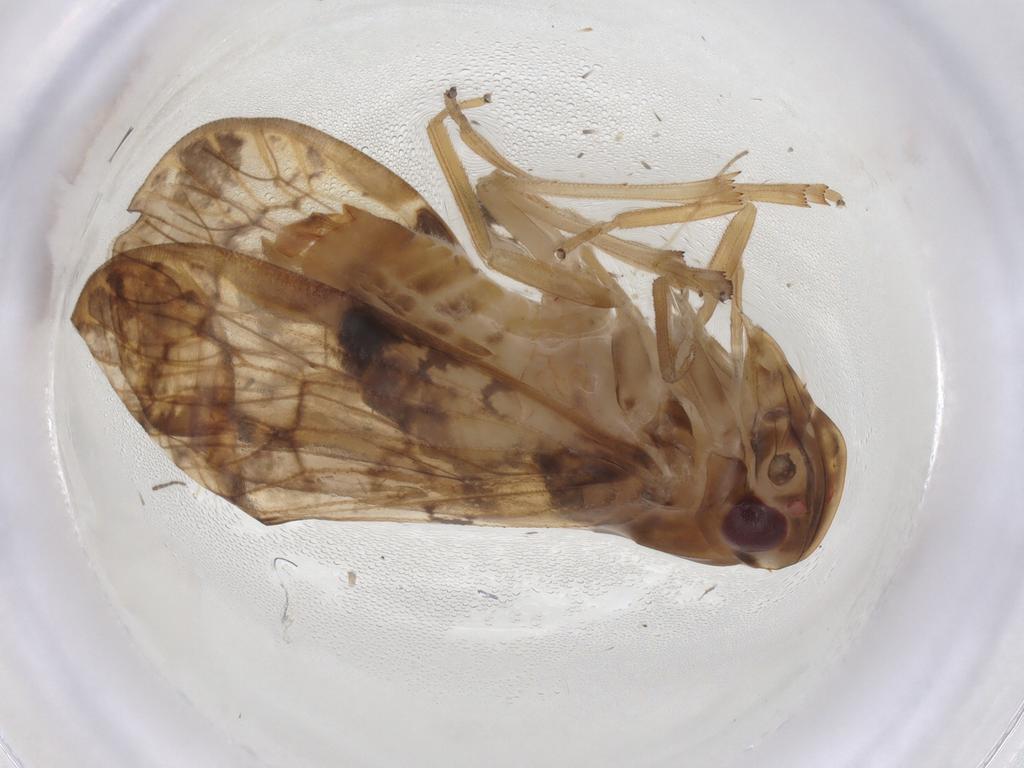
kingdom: Animalia
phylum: Arthropoda
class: Insecta
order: Hemiptera
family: Cixiidae
